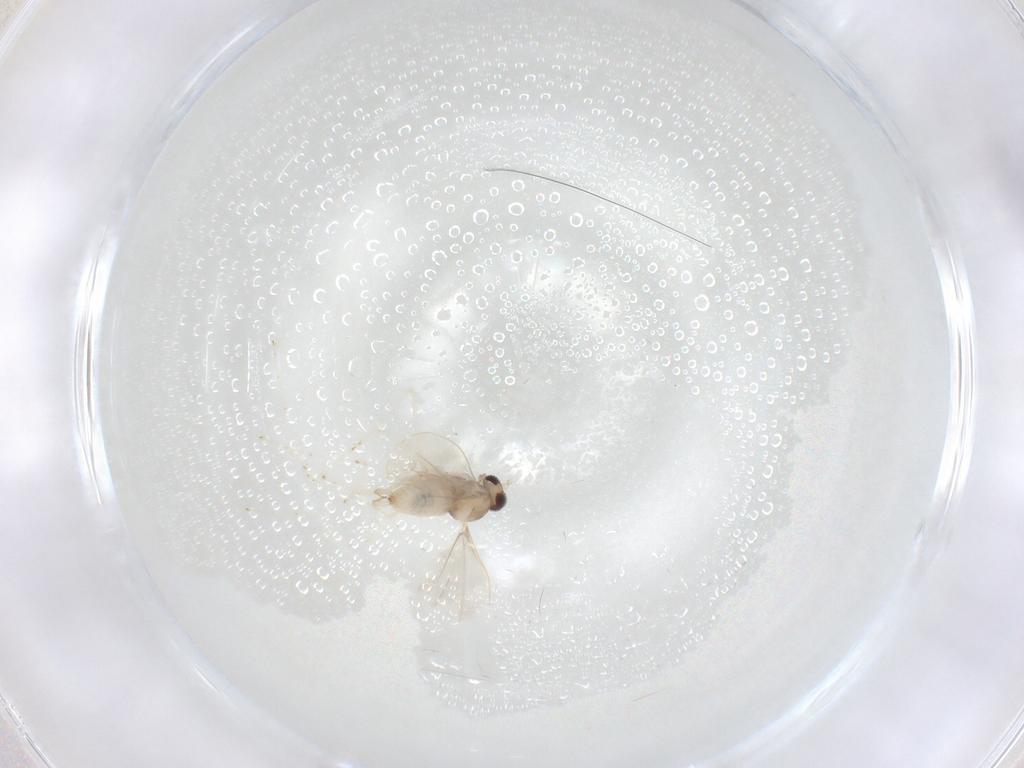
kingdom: Animalia
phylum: Arthropoda
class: Insecta
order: Diptera
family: Cecidomyiidae
